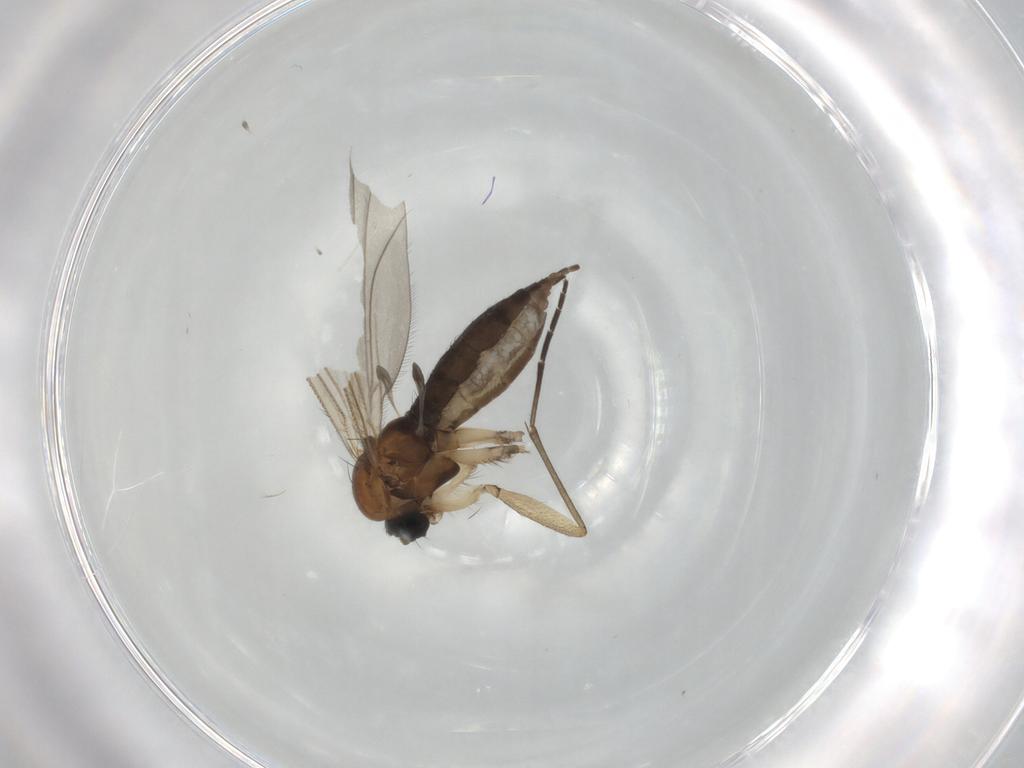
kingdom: Animalia
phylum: Arthropoda
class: Insecta
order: Diptera
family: Sciaridae
